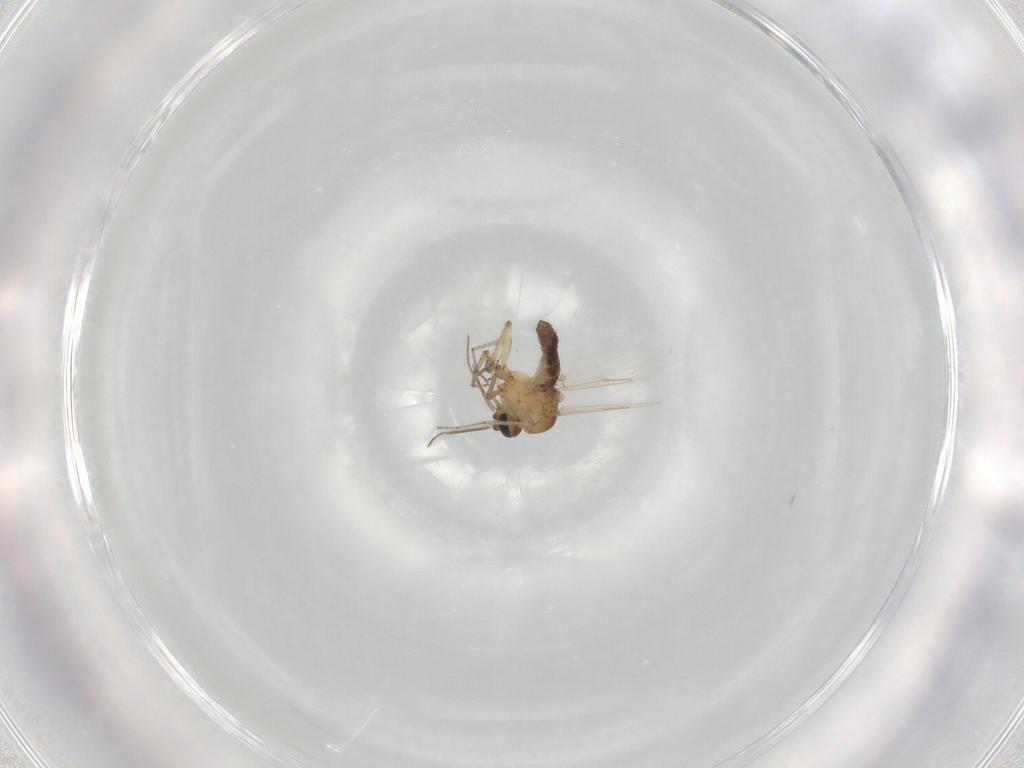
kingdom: Animalia
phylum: Arthropoda
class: Insecta
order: Diptera
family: Ceratopogonidae
